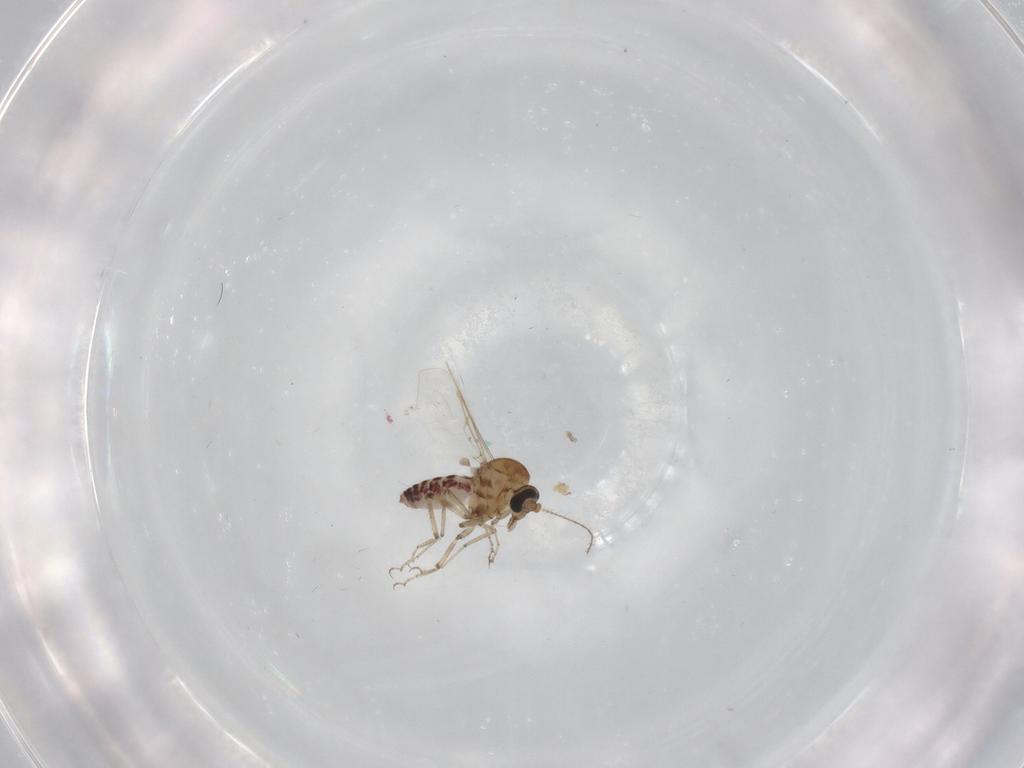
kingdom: Animalia
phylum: Arthropoda
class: Insecta
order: Diptera
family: Ceratopogonidae
